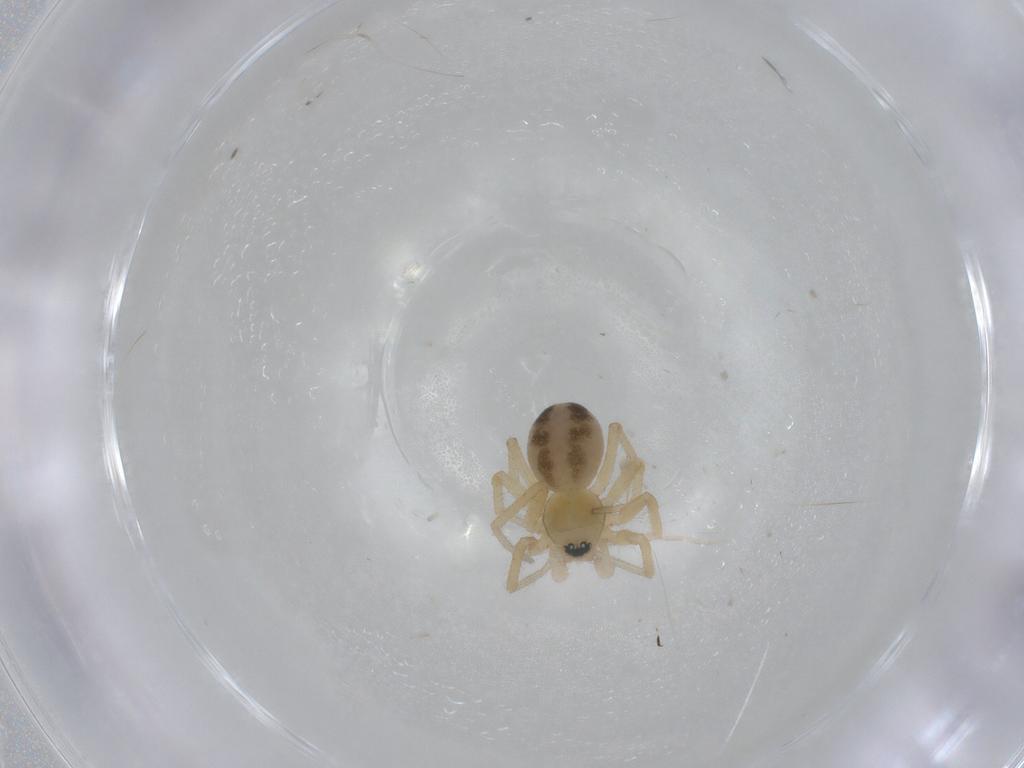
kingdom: Animalia
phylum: Arthropoda
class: Arachnida
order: Araneae
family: Linyphiidae
